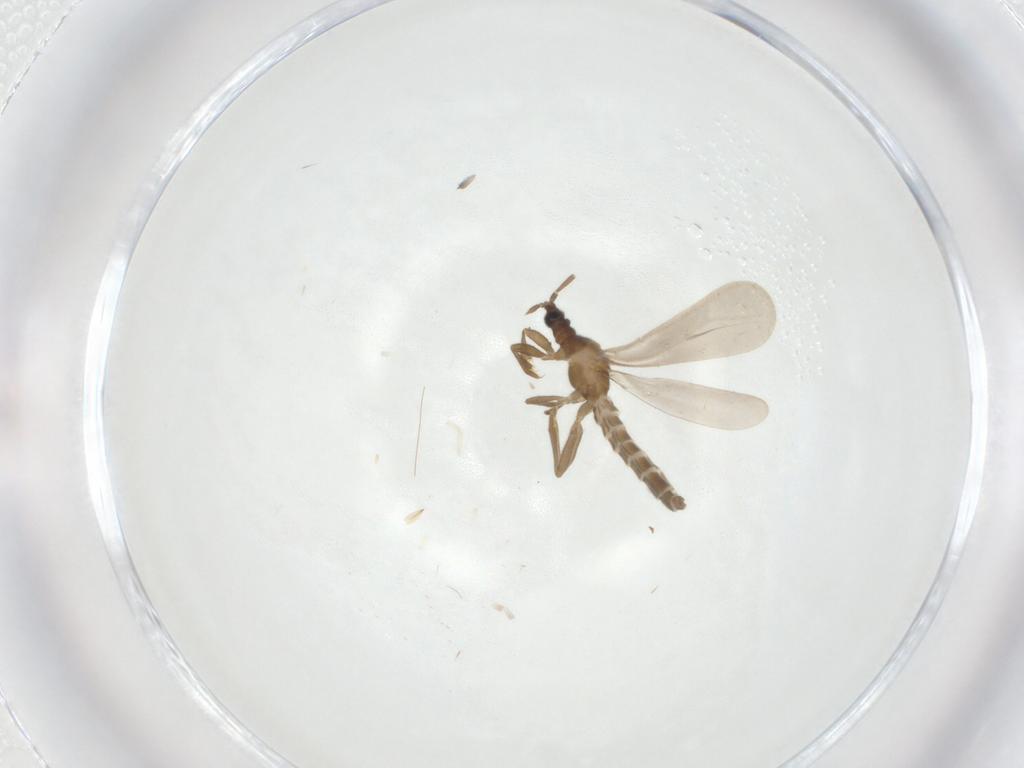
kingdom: Animalia
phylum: Arthropoda
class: Insecta
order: Hemiptera
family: Enicocephalidae
